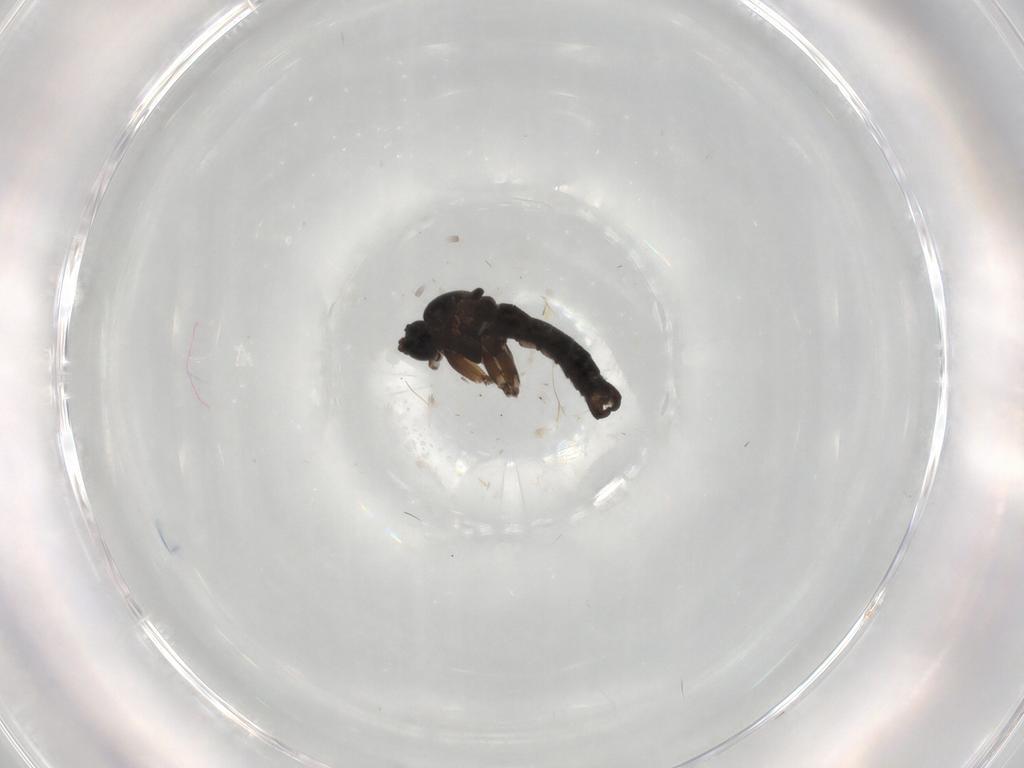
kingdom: Animalia
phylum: Arthropoda
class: Insecta
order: Diptera
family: Sciaridae
